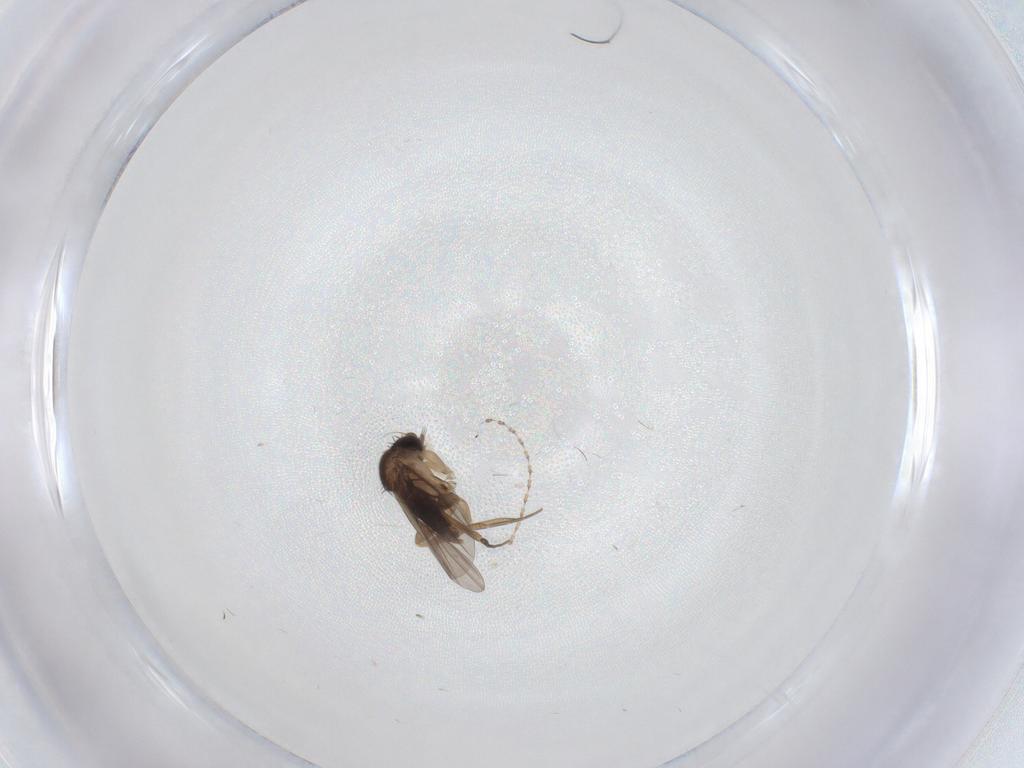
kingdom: Animalia
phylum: Arthropoda
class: Insecta
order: Diptera
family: Limoniidae
